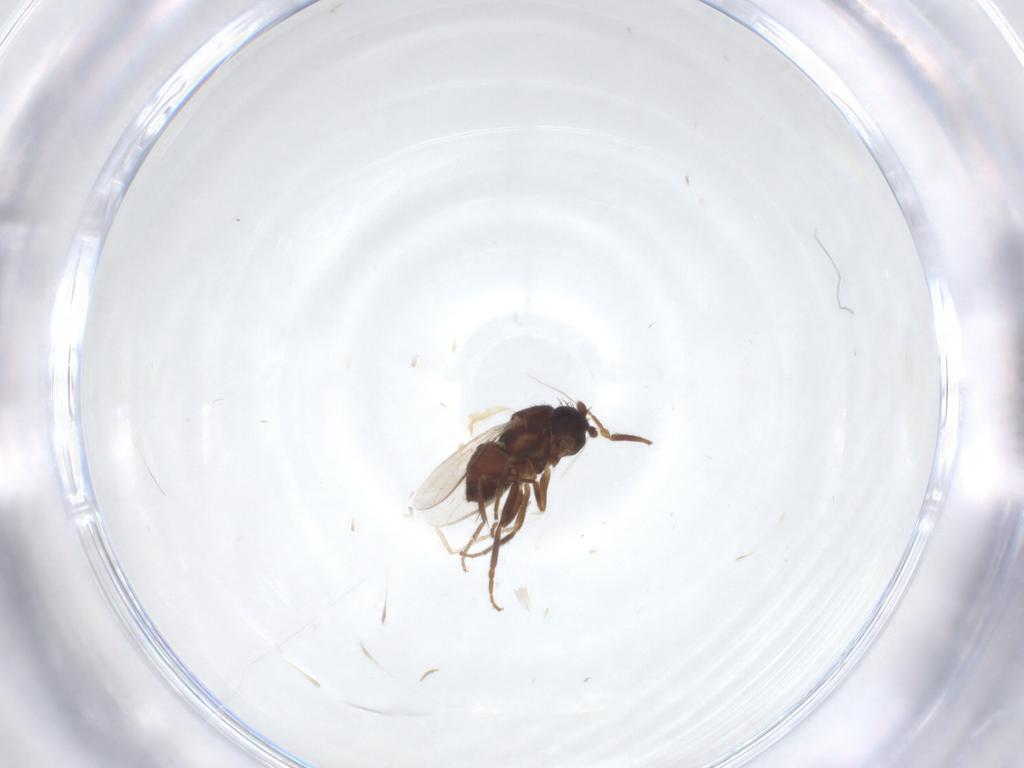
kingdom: Animalia
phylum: Arthropoda
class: Insecta
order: Diptera
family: Sphaeroceridae
